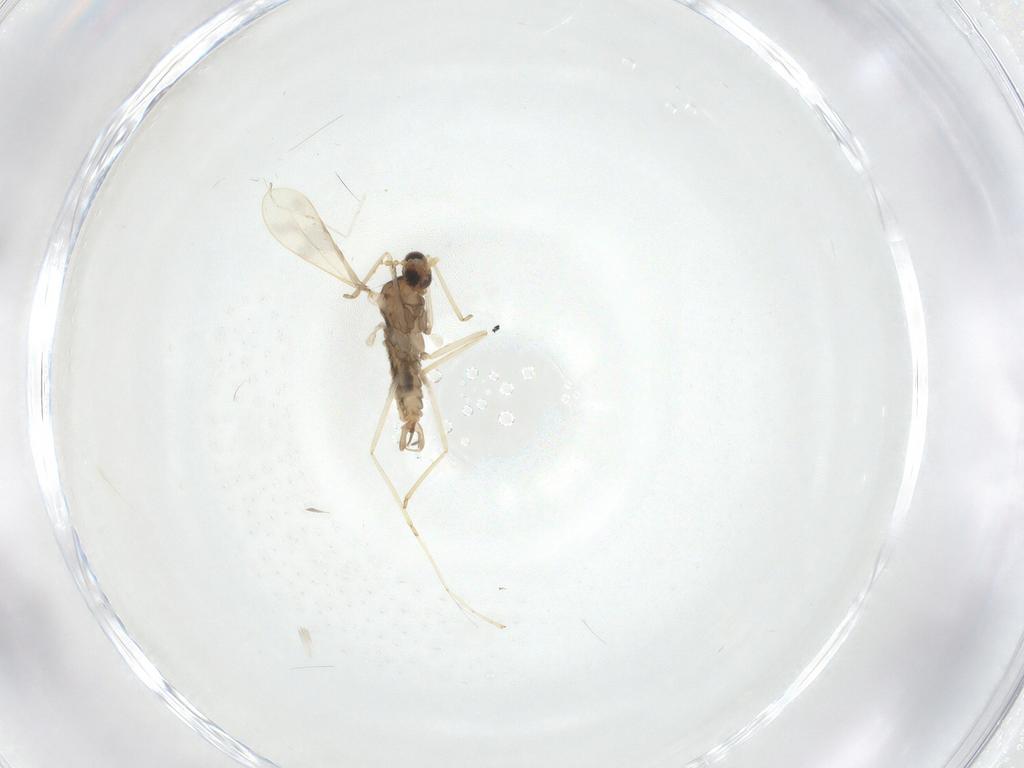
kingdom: Animalia
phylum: Arthropoda
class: Insecta
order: Diptera
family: Cecidomyiidae
